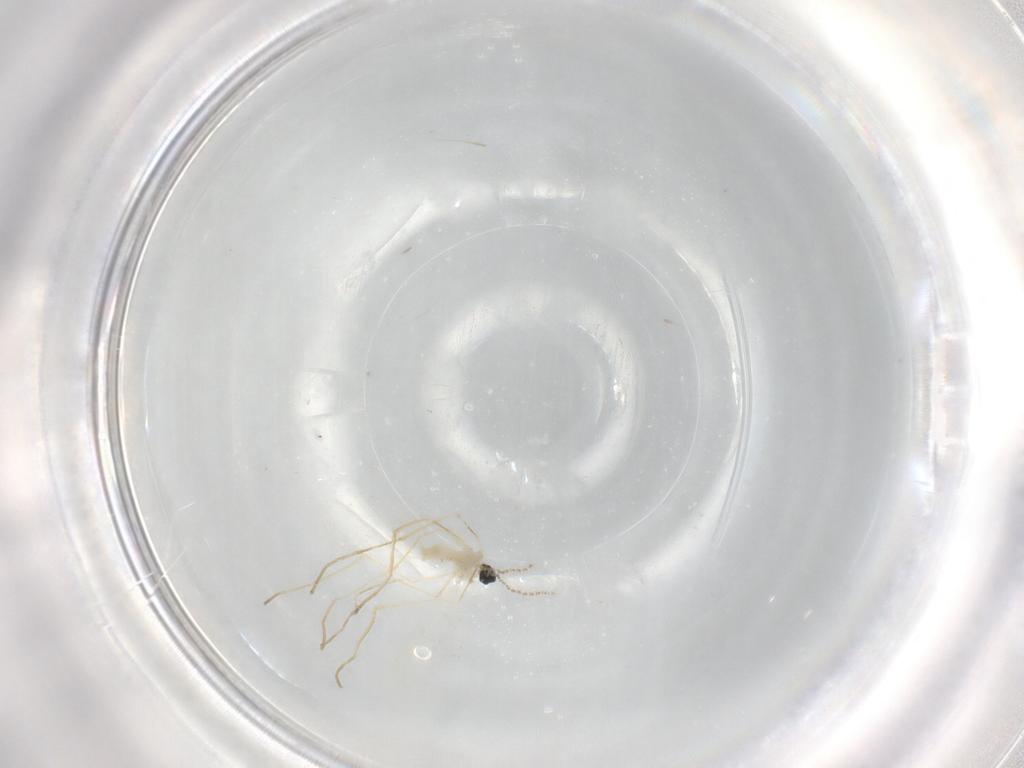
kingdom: Animalia
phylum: Arthropoda
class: Insecta
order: Diptera
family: Cecidomyiidae
